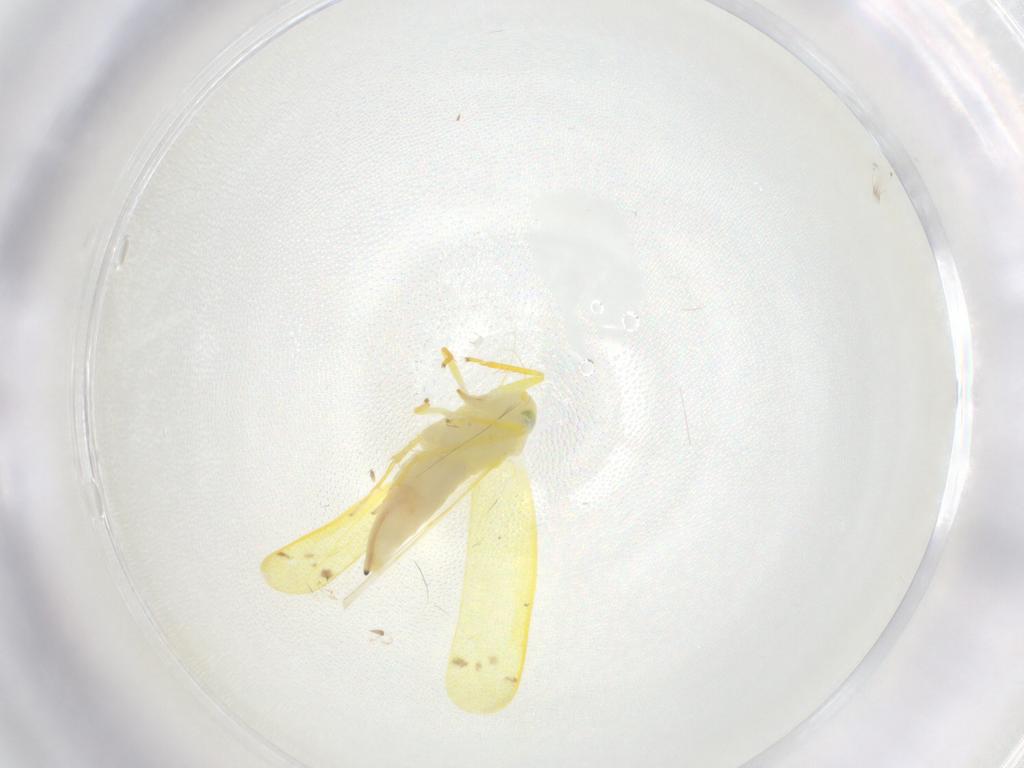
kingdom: Animalia
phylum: Arthropoda
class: Insecta
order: Hemiptera
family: Cicadellidae
